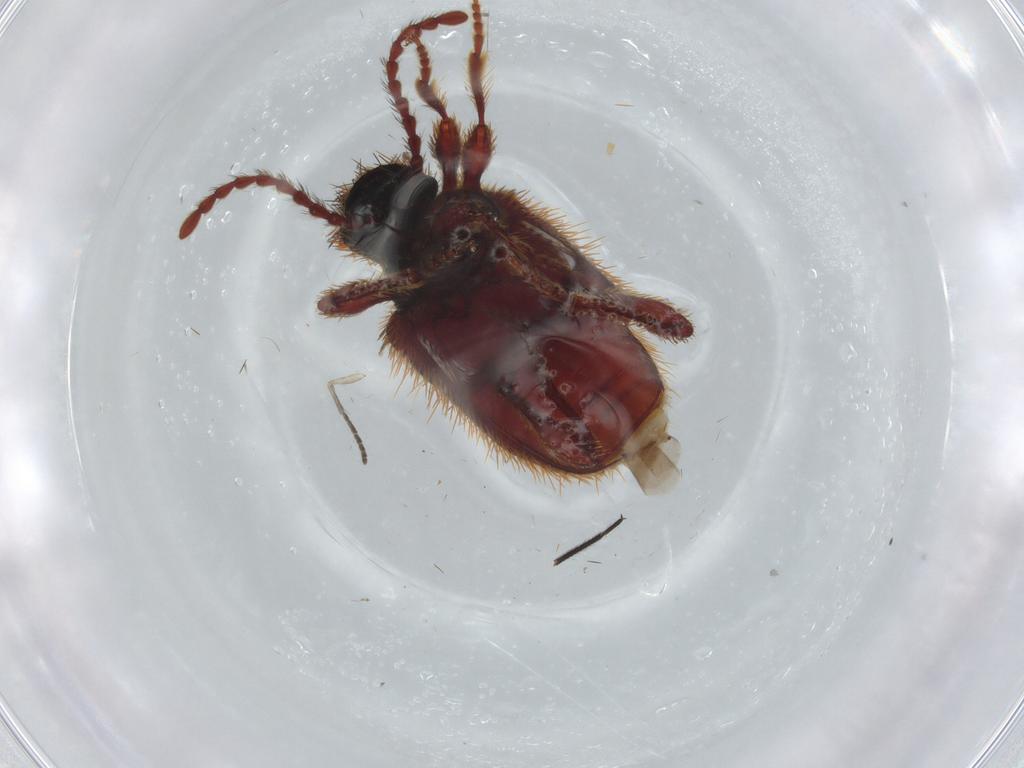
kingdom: Animalia
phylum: Arthropoda
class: Insecta
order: Coleoptera
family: Ptinidae
